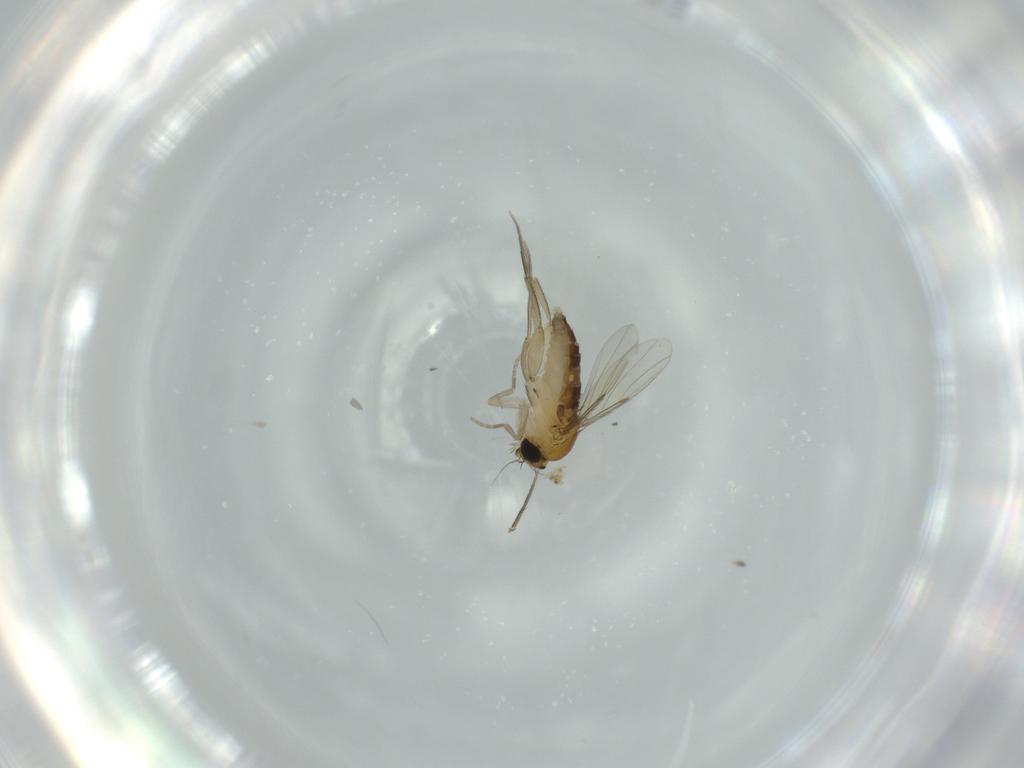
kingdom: Animalia
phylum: Arthropoda
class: Insecta
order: Diptera
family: Phoridae
